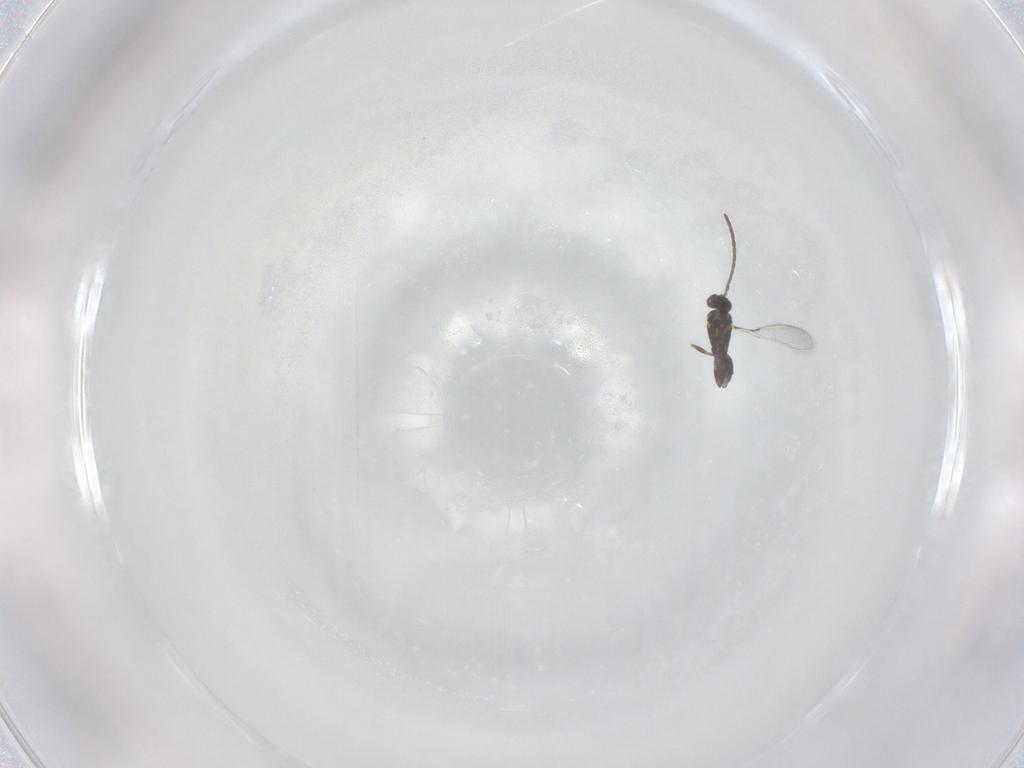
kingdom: Animalia
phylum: Arthropoda
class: Insecta
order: Hymenoptera
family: Mymaridae
